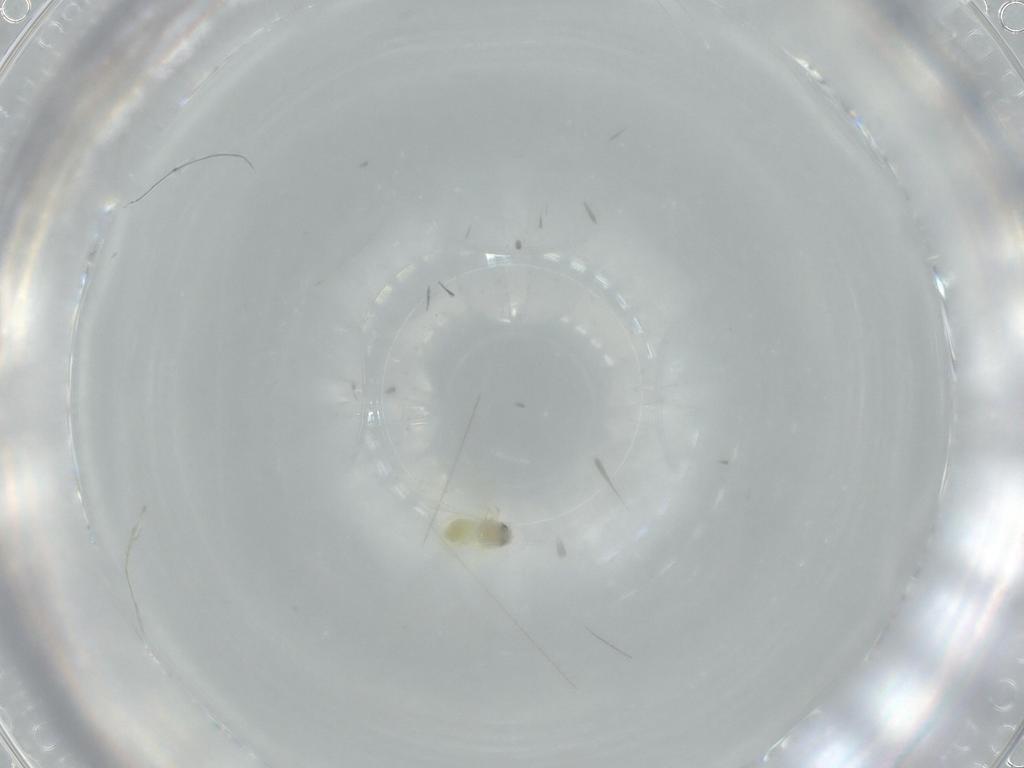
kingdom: Animalia
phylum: Arthropoda
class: Insecta
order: Hemiptera
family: Aleyrodidae
